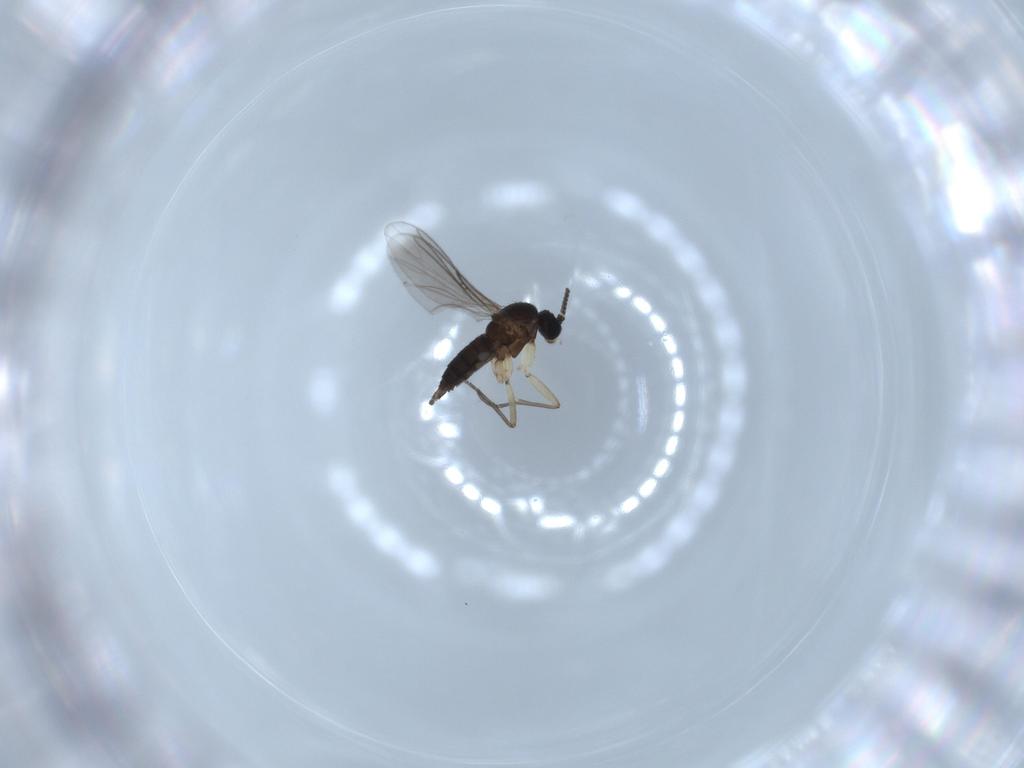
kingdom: Animalia
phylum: Arthropoda
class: Insecta
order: Diptera
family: Sciaridae
